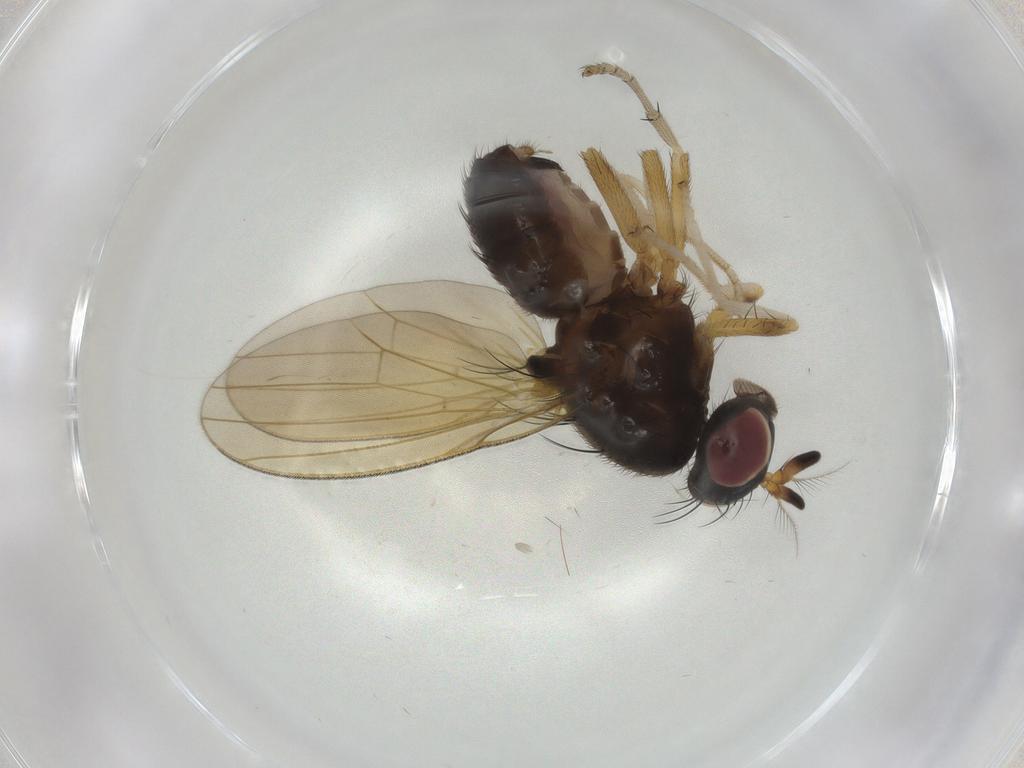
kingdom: Animalia
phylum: Arthropoda
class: Insecta
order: Diptera
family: Lauxaniidae
